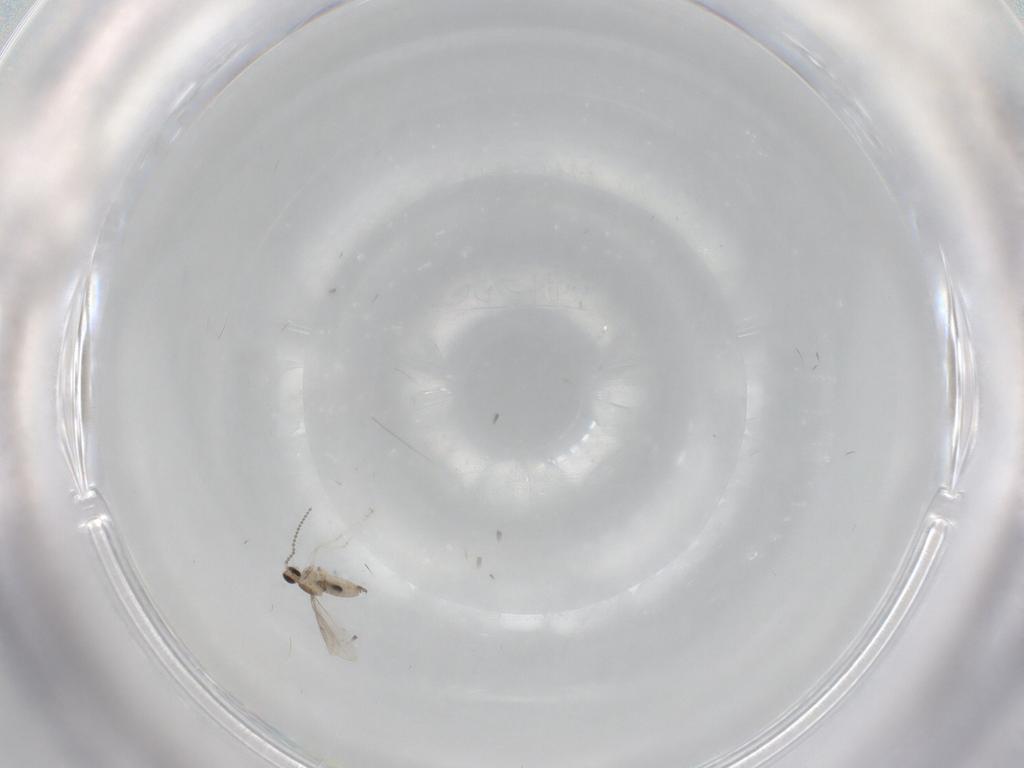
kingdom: Animalia
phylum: Arthropoda
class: Insecta
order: Diptera
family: Cecidomyiidae
